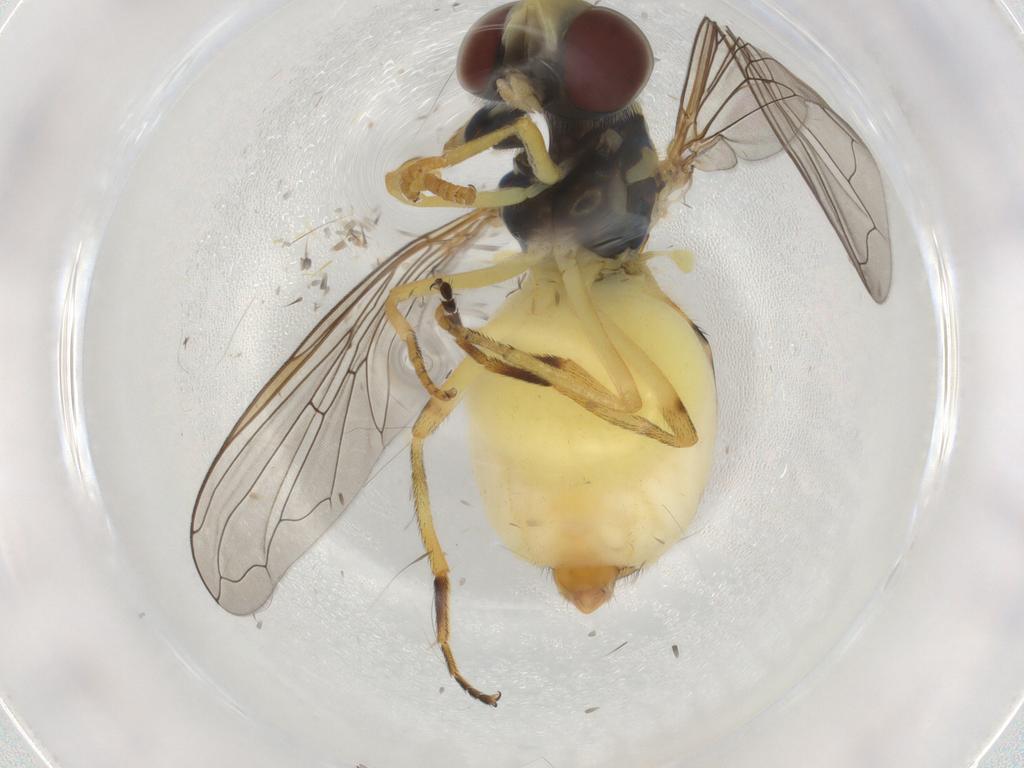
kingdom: Animalia
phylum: Arthropoda
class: Insecta
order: Diptera
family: Syrphidae
